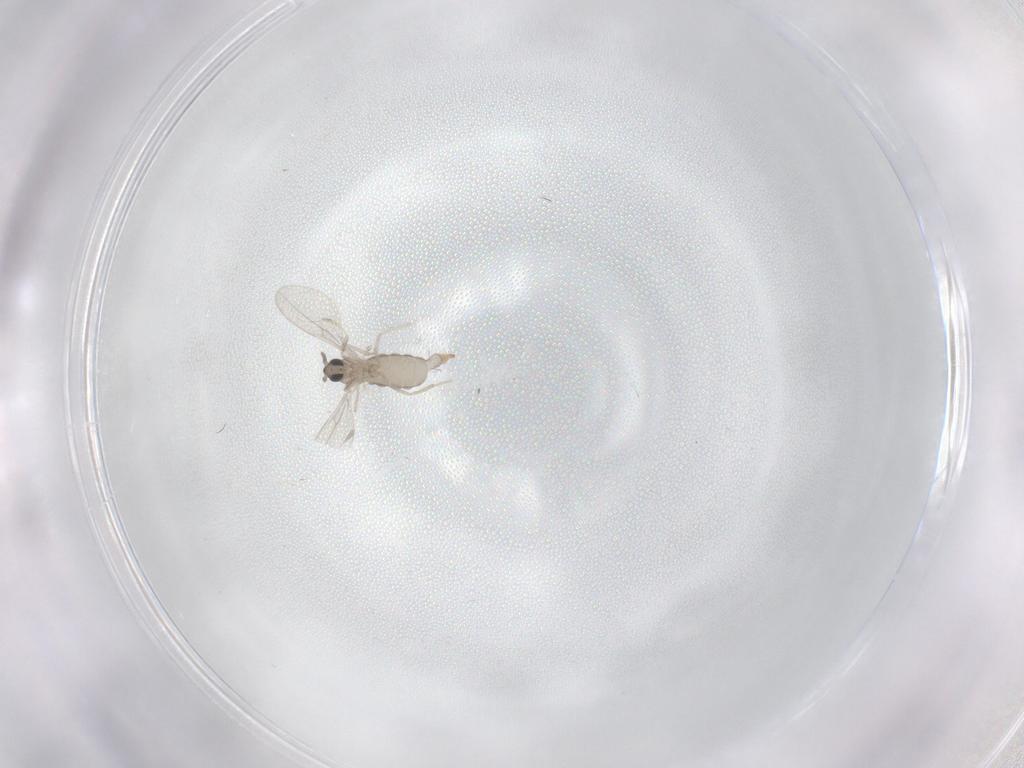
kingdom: Animalia
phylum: Arthropoda
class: Insecta
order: Diptera
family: Cecidomyiidae
